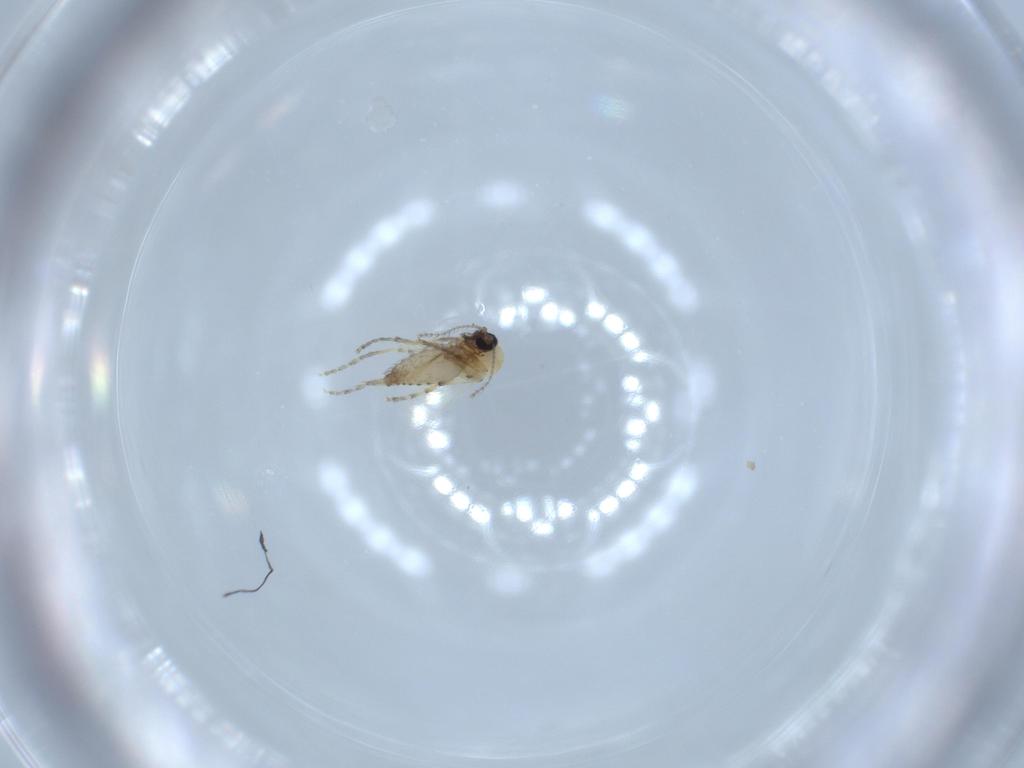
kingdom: Animalia
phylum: Arthropoda
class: Insecta
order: Diptera
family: Ceratopogonidae
